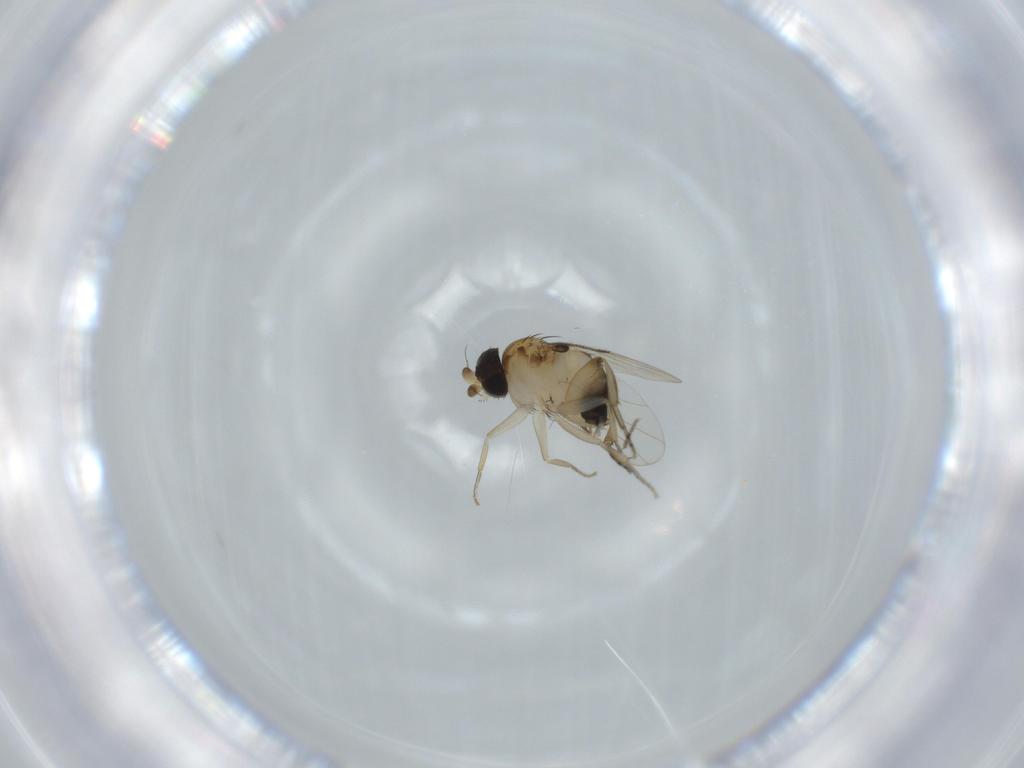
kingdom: Animalia
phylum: Arthropoda
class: Insecta
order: Diptera
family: Phoridae
